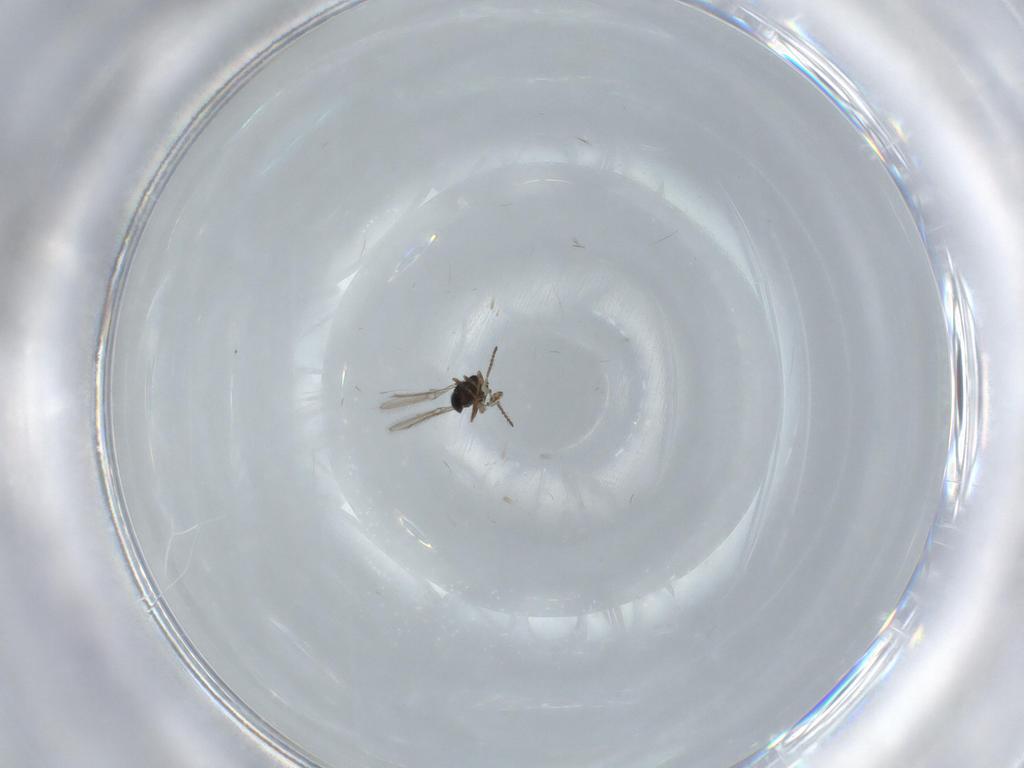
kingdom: Animalia
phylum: Arthropoda
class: Insecta
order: Hymenoptera
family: Scelionidae
